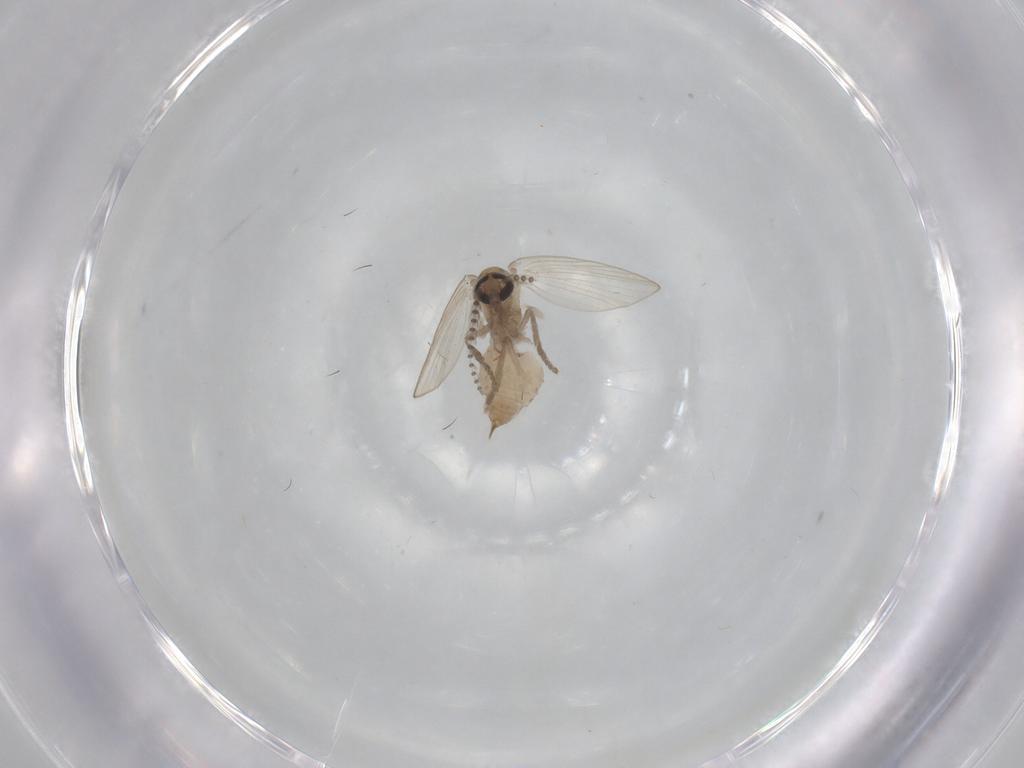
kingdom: Animalia
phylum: Arthropoda
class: Insecta
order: Diptera
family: Psychodidae
